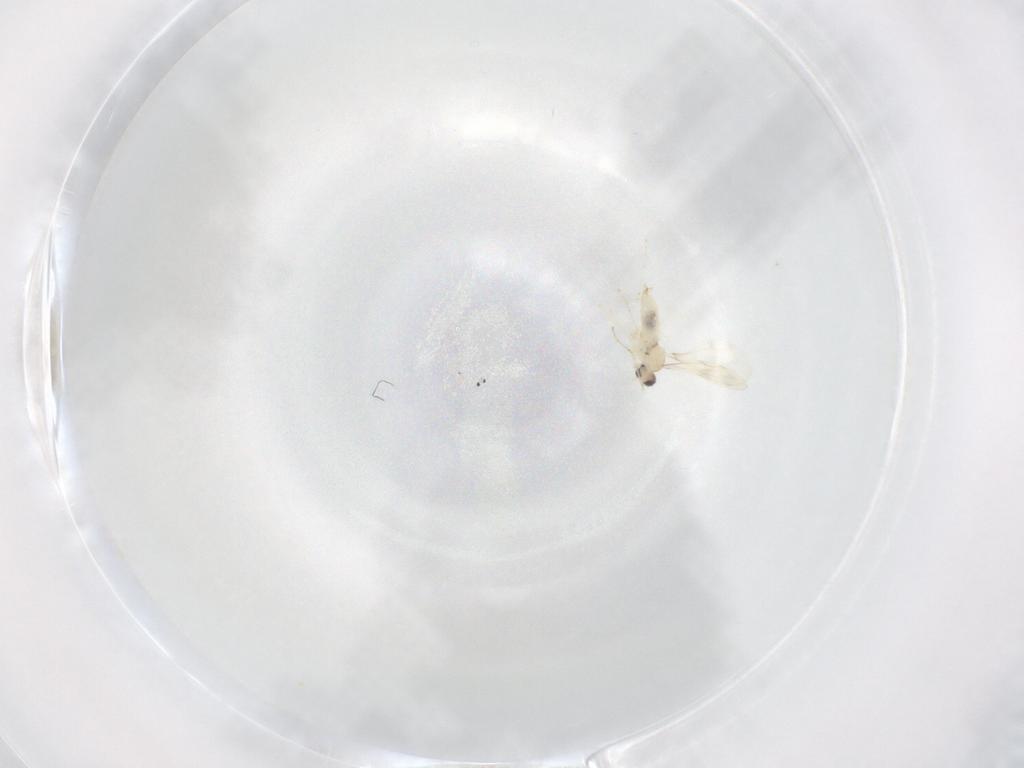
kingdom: Animalia
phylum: Arthropoda
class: Insecta
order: Diptera
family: Cecidomyiidae
